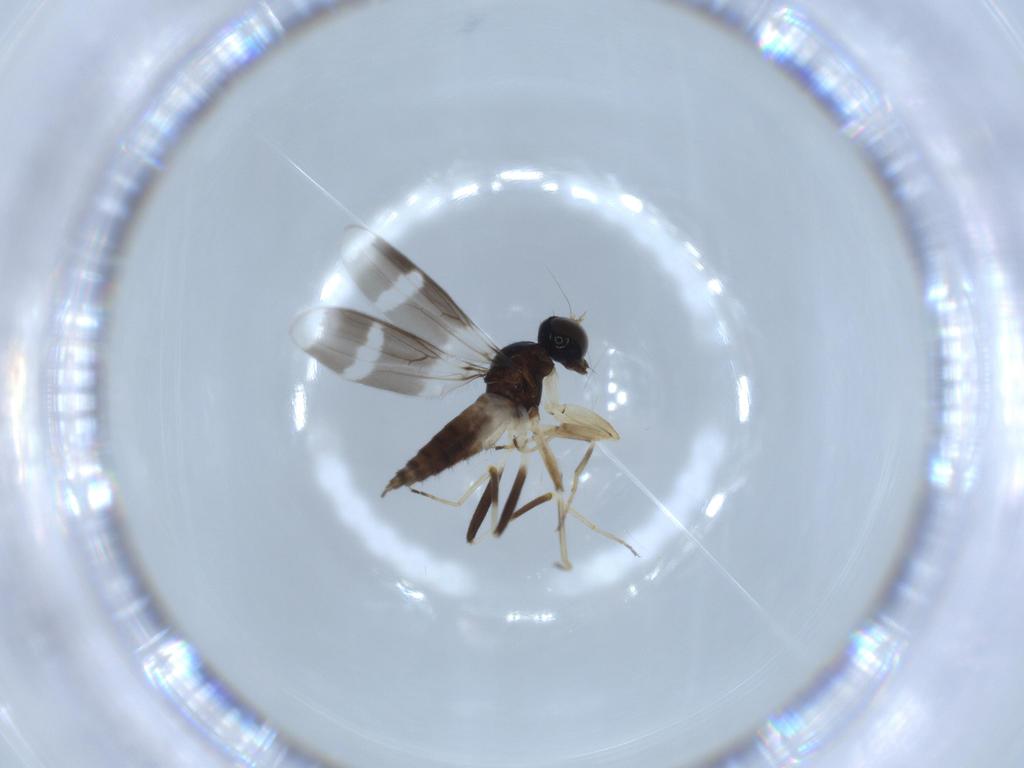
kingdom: Animalia
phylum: Arthropoda
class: Insecta
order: Diptera
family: Hybotidae
